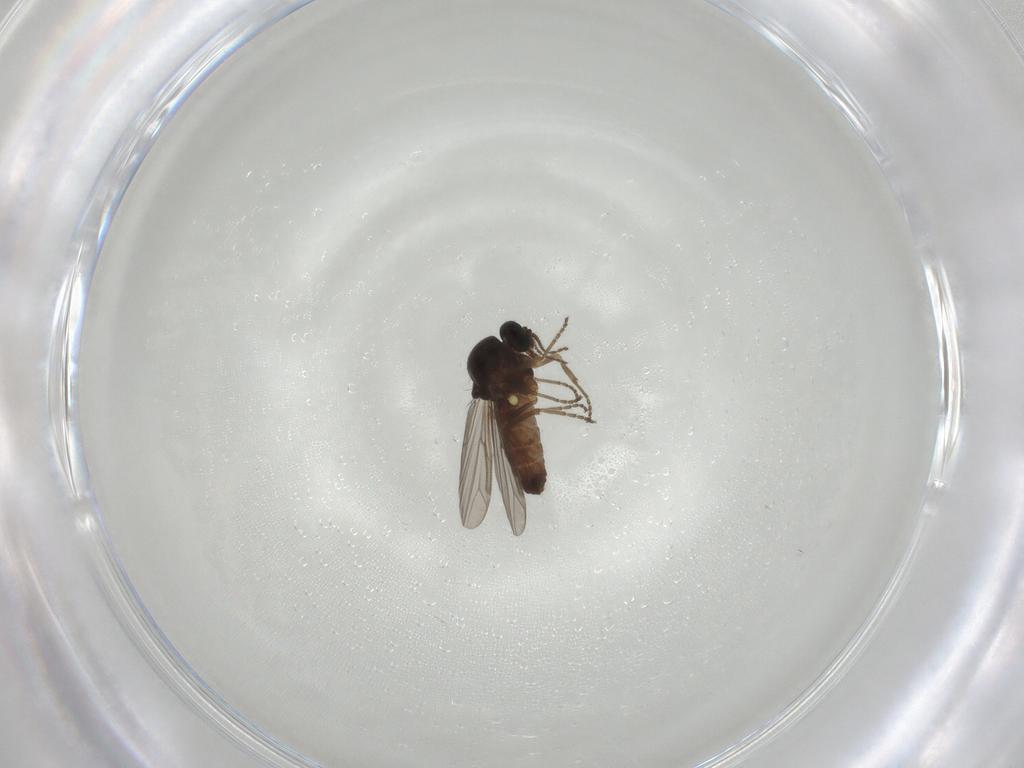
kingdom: Animalia
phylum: Arthropoda
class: Insecta
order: Diptera
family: Ceratopogonidae
